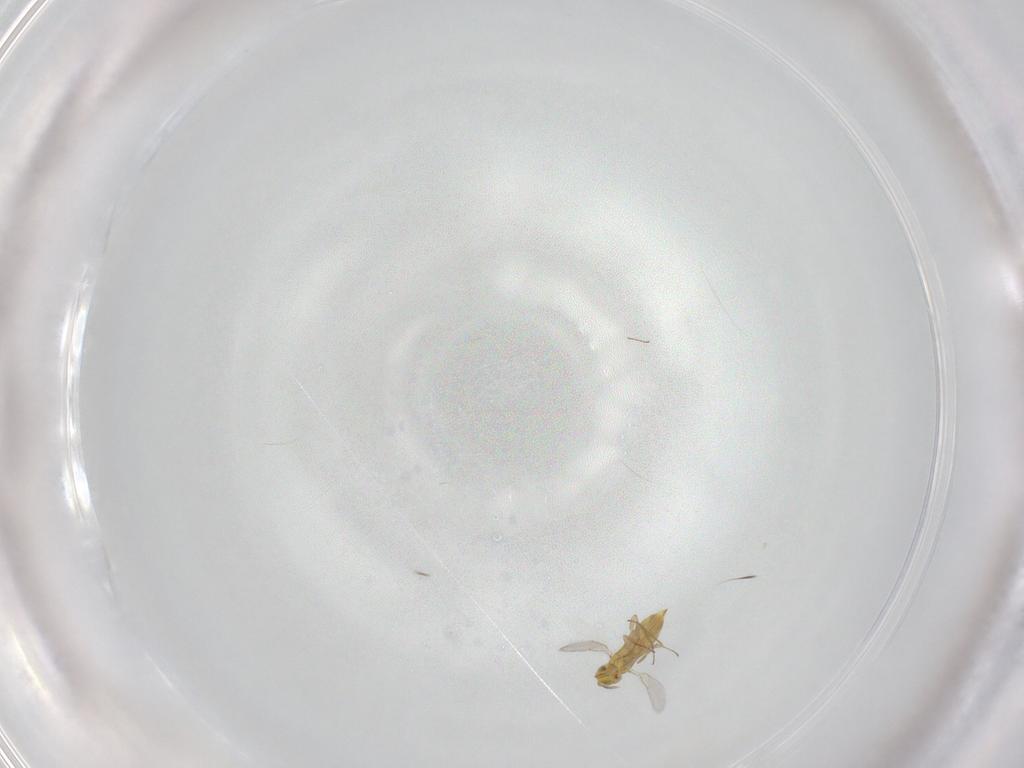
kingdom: Animalia
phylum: Arthropoda
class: Insecta
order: Hymenoptera
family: Aphelinidae
